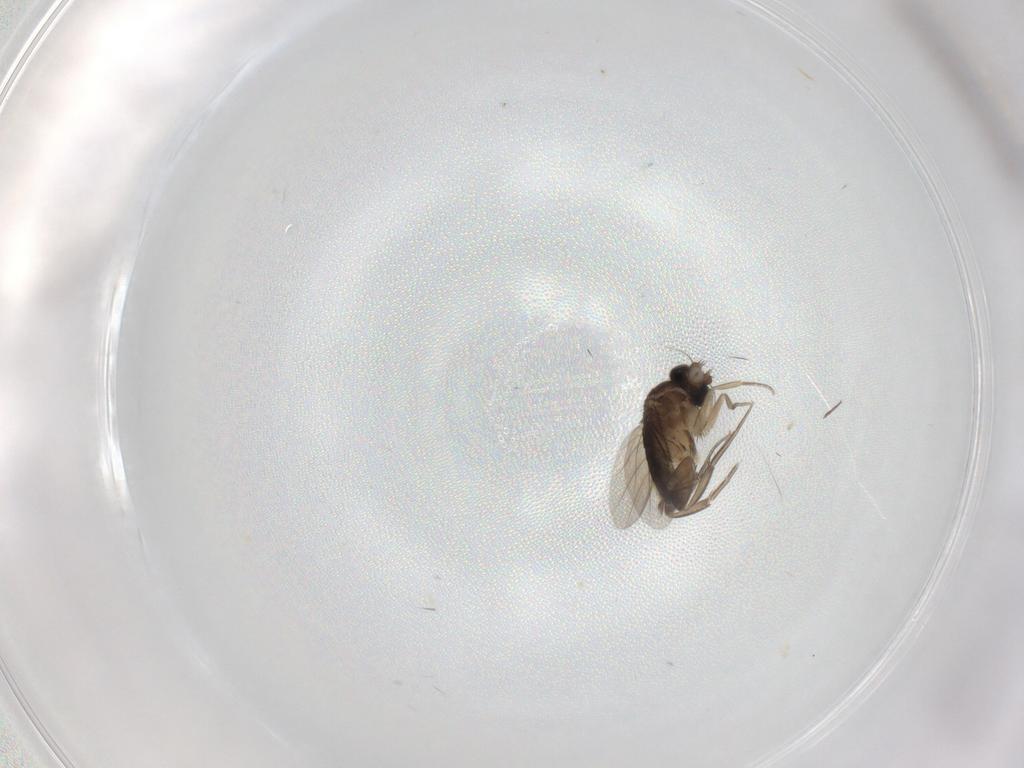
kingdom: Animalia
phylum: Arthropoda
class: Insecta
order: Diptera
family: Phoridae
